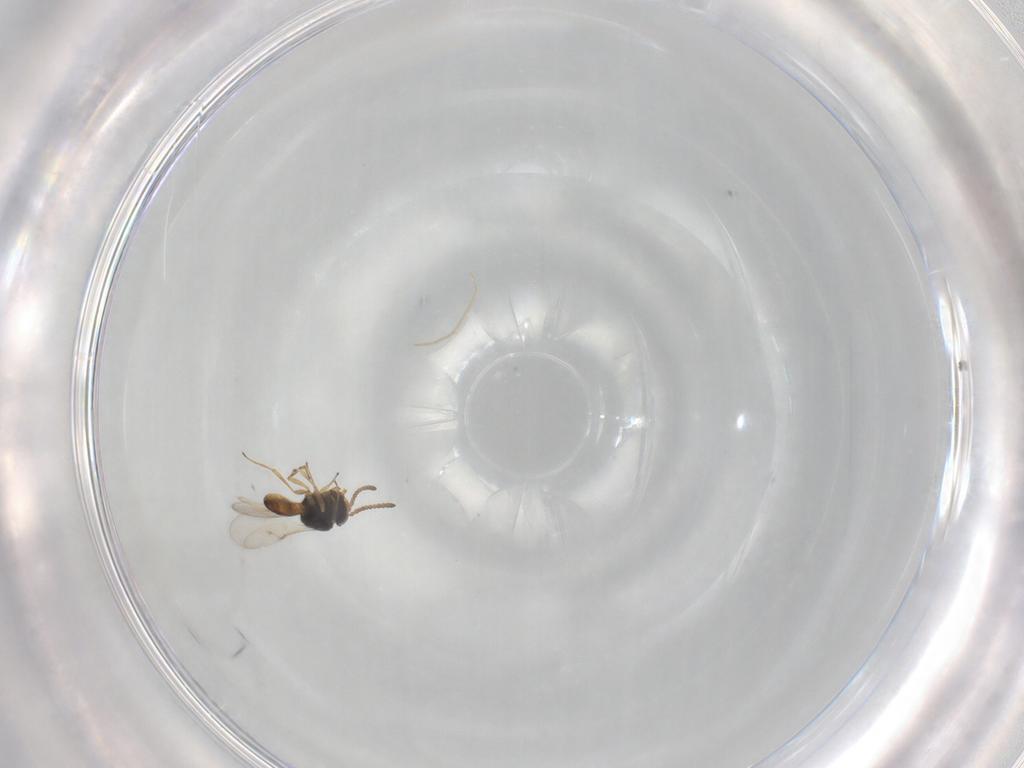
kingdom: Animalia
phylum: Arthropoda
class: Insecta
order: Hymenoptera
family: Scelionidae
